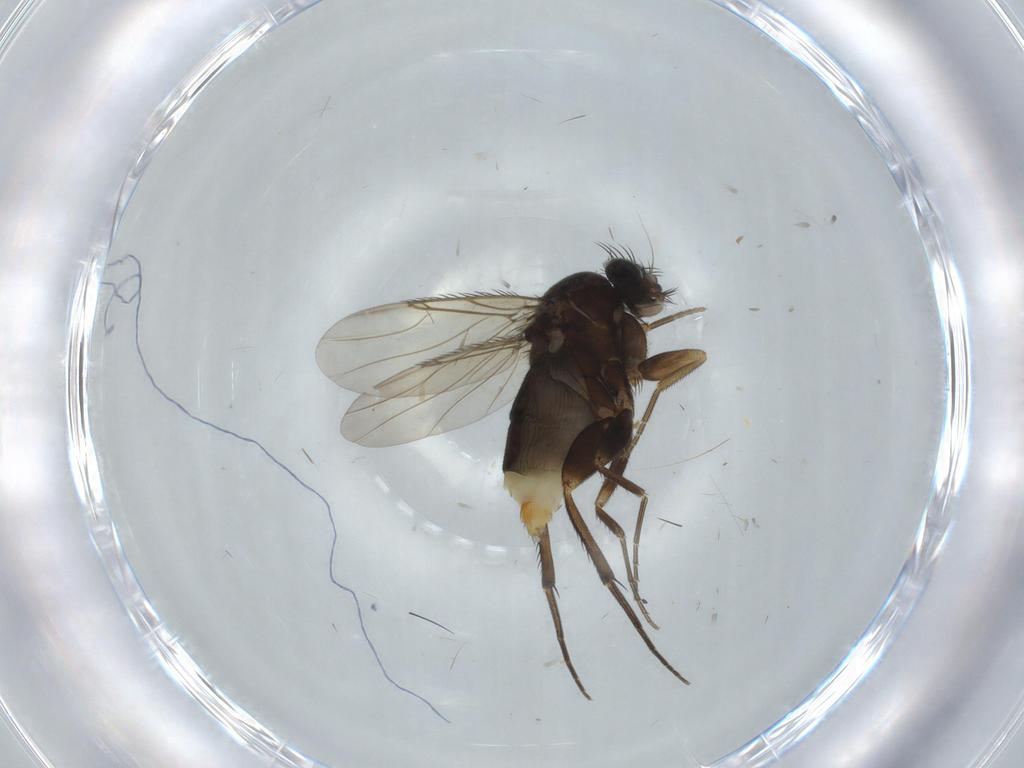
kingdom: Animalia
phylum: Arthropoda
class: Insecta
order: Diptera
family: Phoridae
